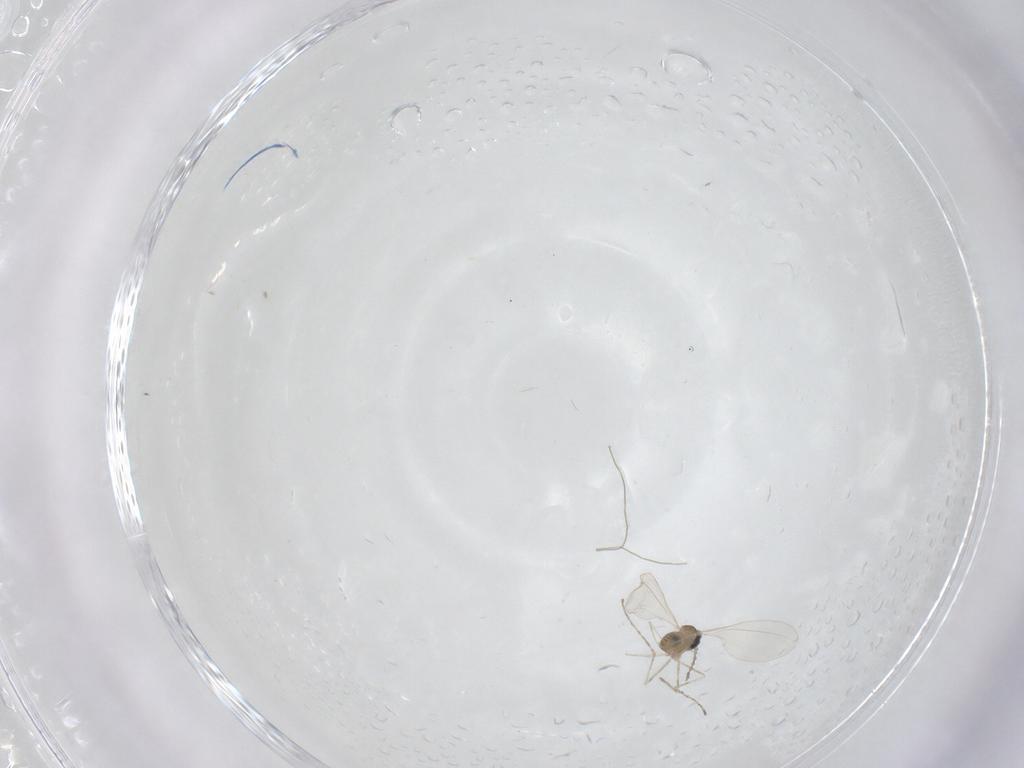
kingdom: Animalia
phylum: Arthropoda
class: Insecta
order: Diptera
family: Cecidomyiidae
